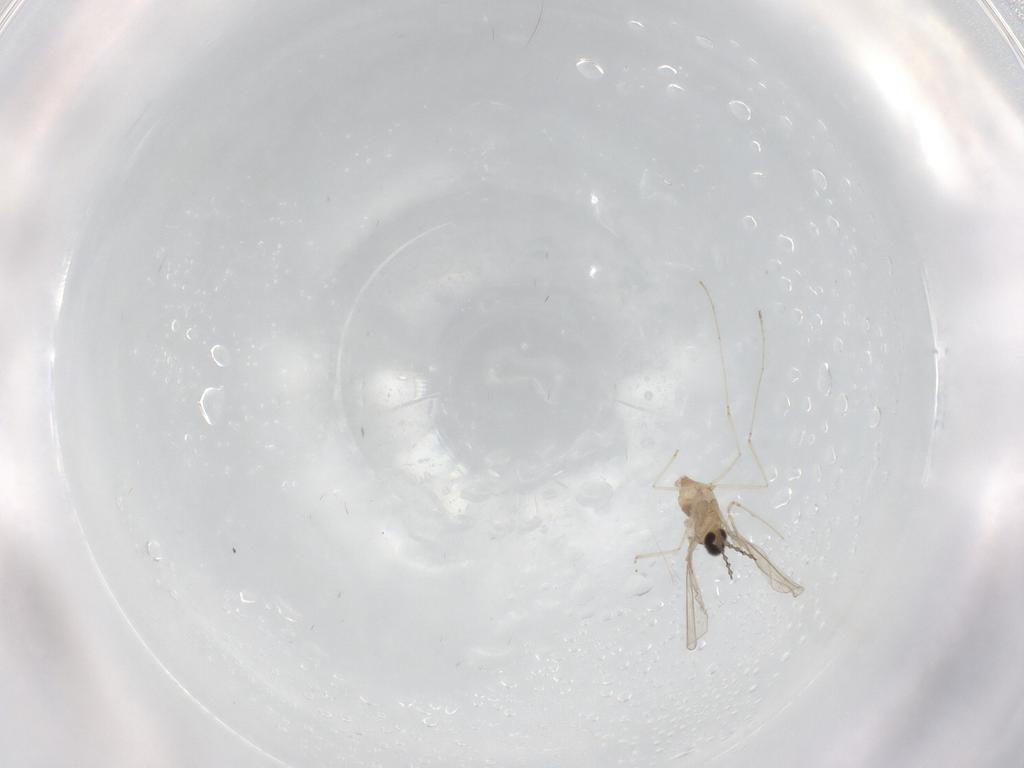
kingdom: Animalia
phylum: Arthropoda
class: Insecta
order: Diptera
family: Cecidomyiidae
